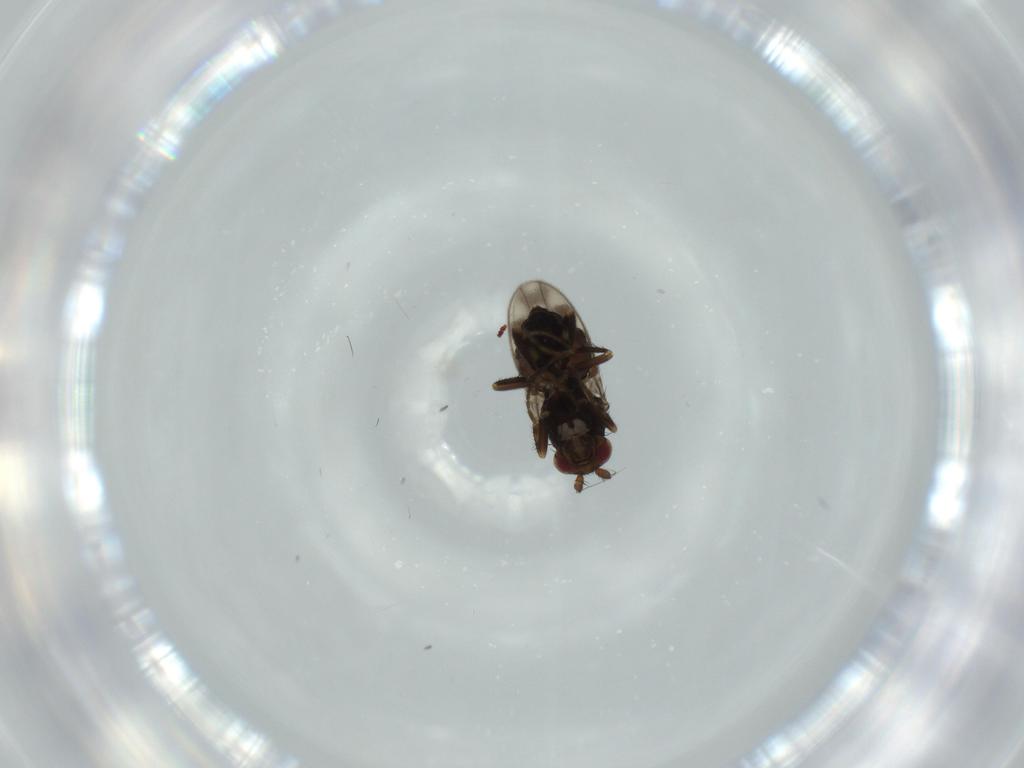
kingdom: Animalia
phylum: Arthropoda
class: Insecta
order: Diptera
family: Sphaeroceridae
